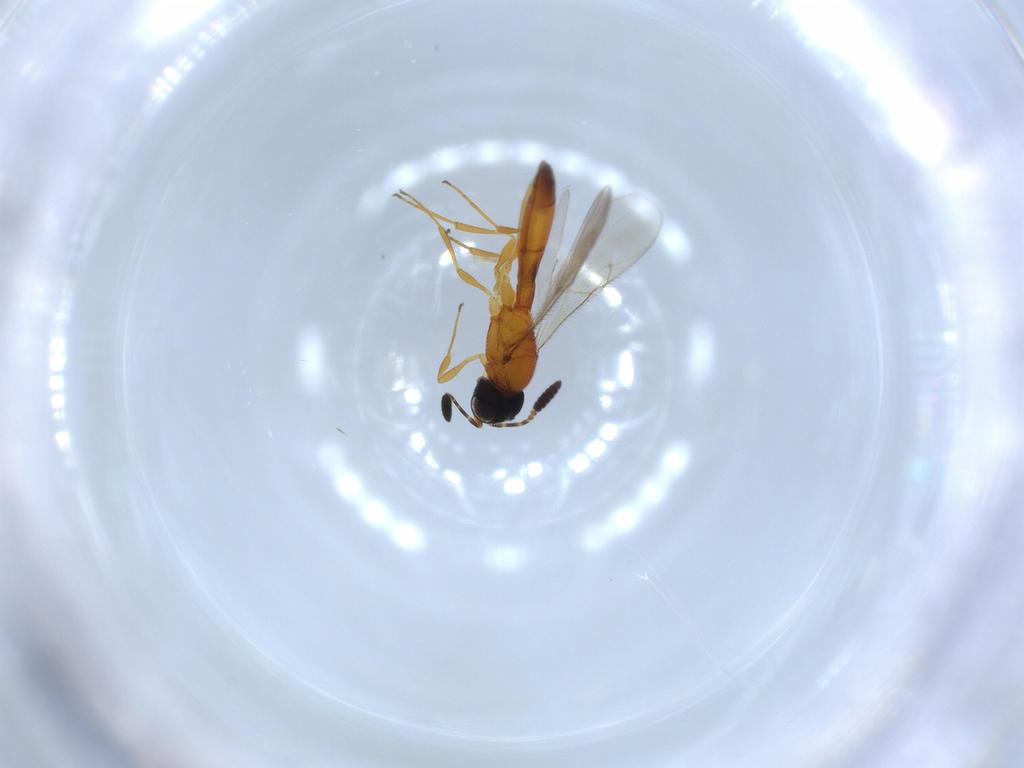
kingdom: Animalia
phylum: Arthropoda
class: Insecta
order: Hymenoptera
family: Scelionidae
